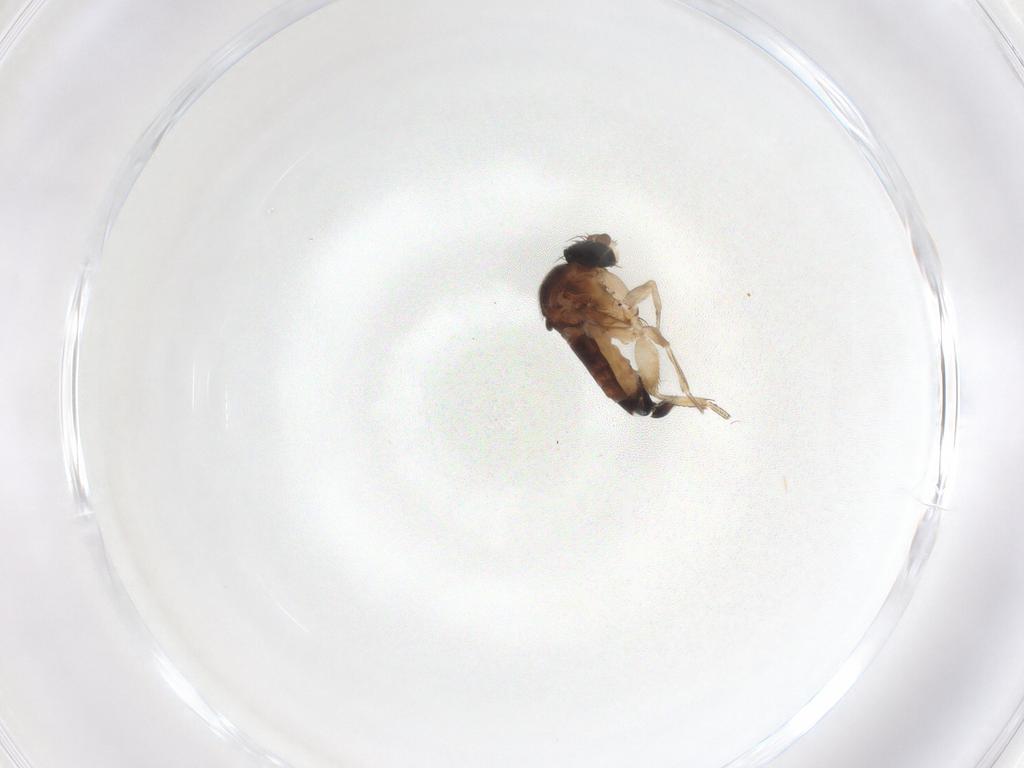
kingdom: Animalia
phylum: Arthropoda
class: Insecta
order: Diptera
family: Phoridae
